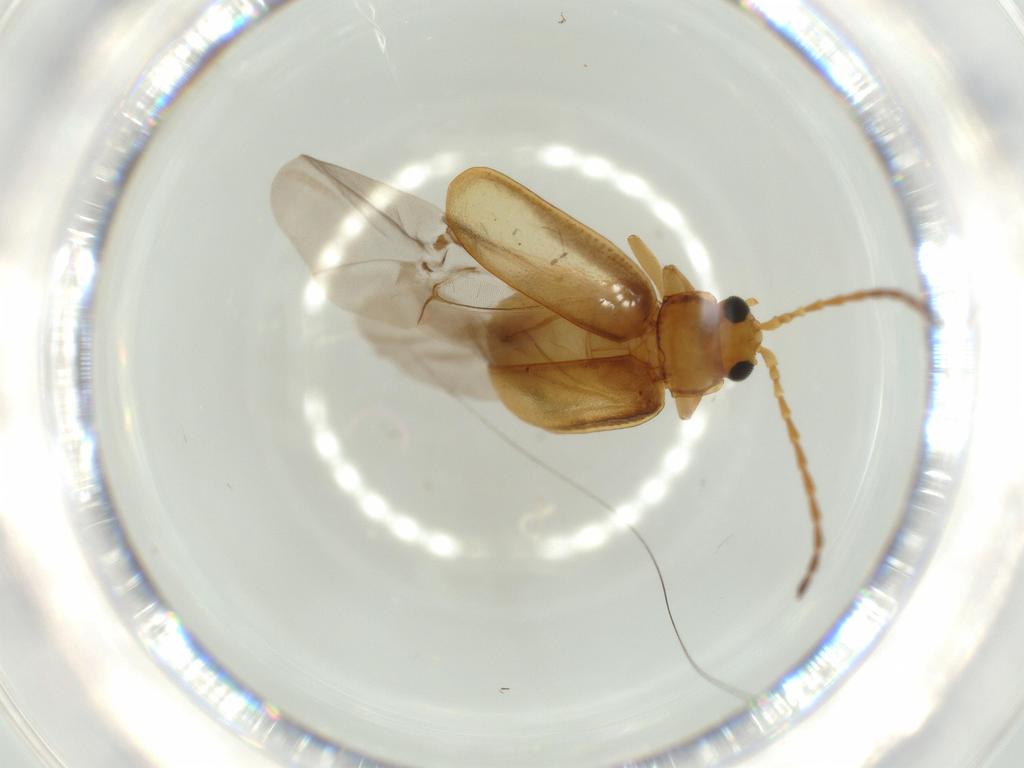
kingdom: Animalia
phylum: Arthropoda
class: Insecta
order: Coleoptera
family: Chrysomelidae
